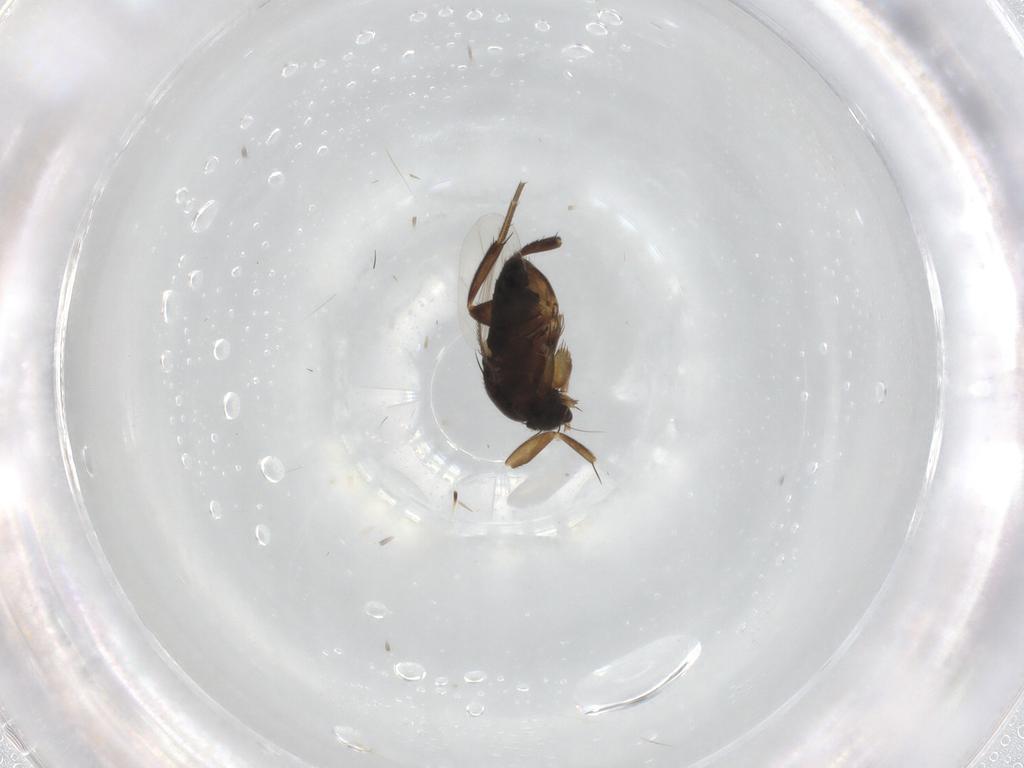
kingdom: Animalia
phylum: Arthropoda
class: Insecta
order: Diptera
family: Phoridae
